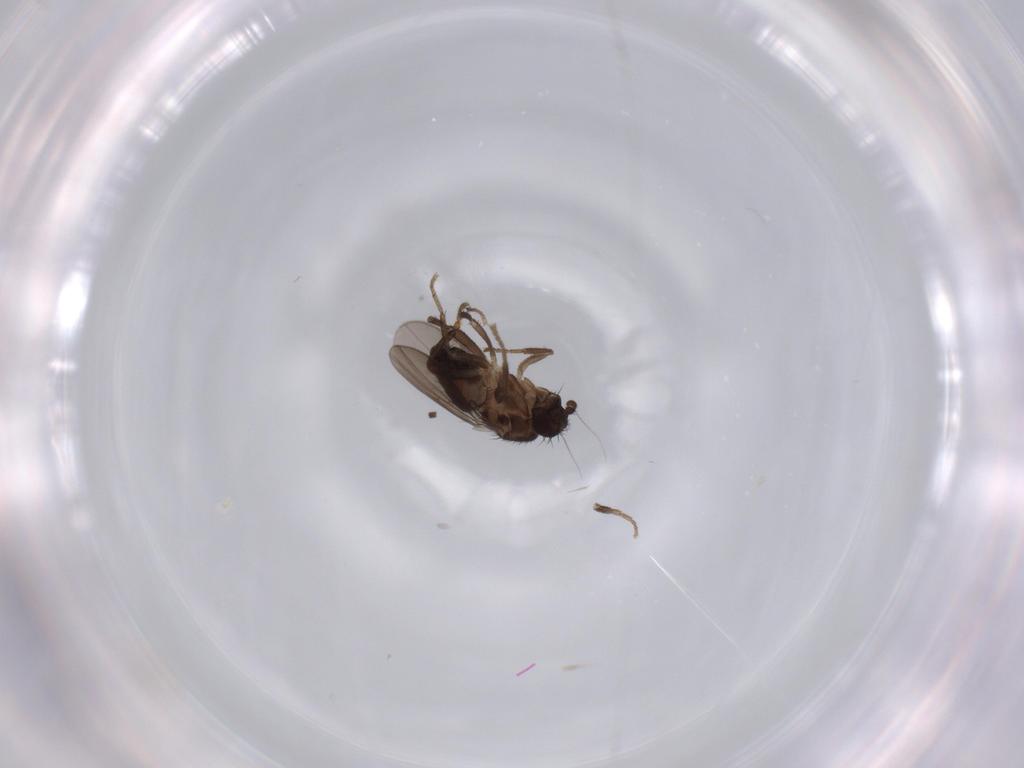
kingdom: Animalia
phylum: Arthropoda
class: Insecta
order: Diptera
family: Sphaeroceridae
